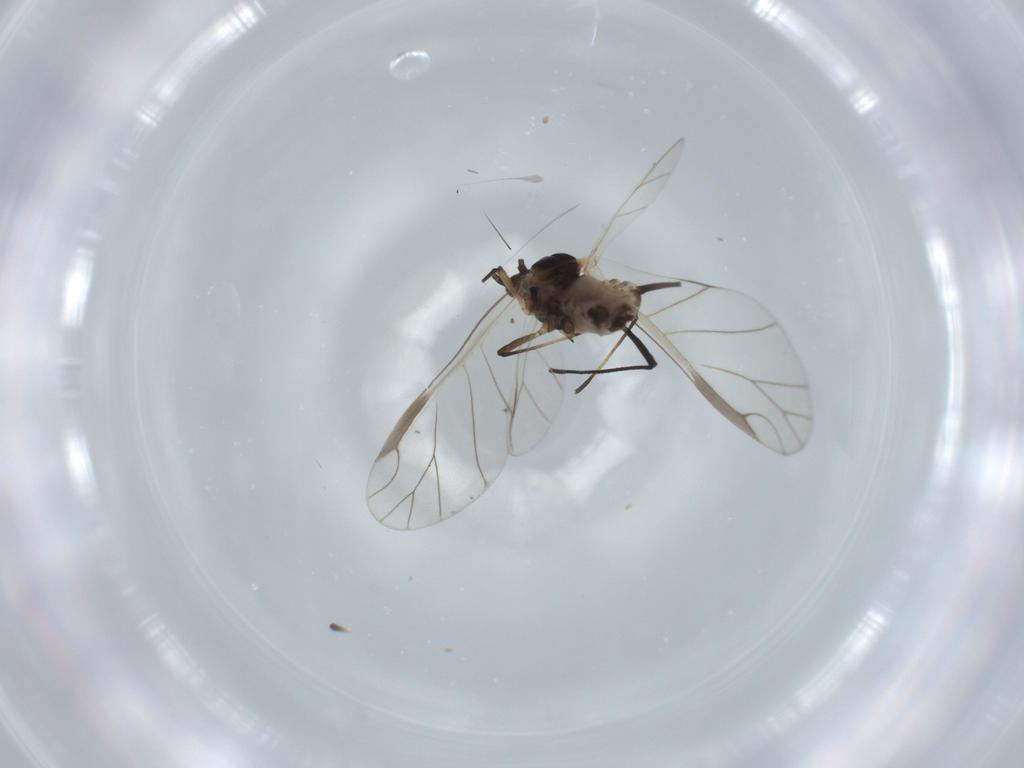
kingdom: Animalia
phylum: Arthropoda
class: Insecta
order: Hemiptera
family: Aphididae
